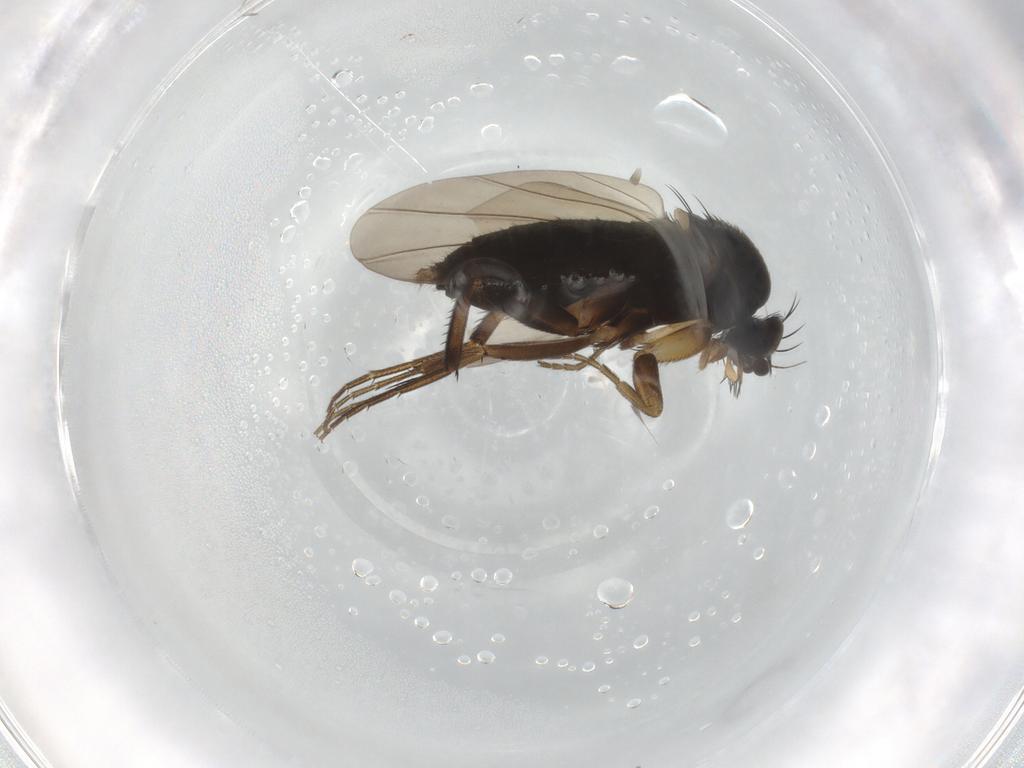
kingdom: Animalia
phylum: Arthropoda
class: Insecta
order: Diptera
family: Phoridae
